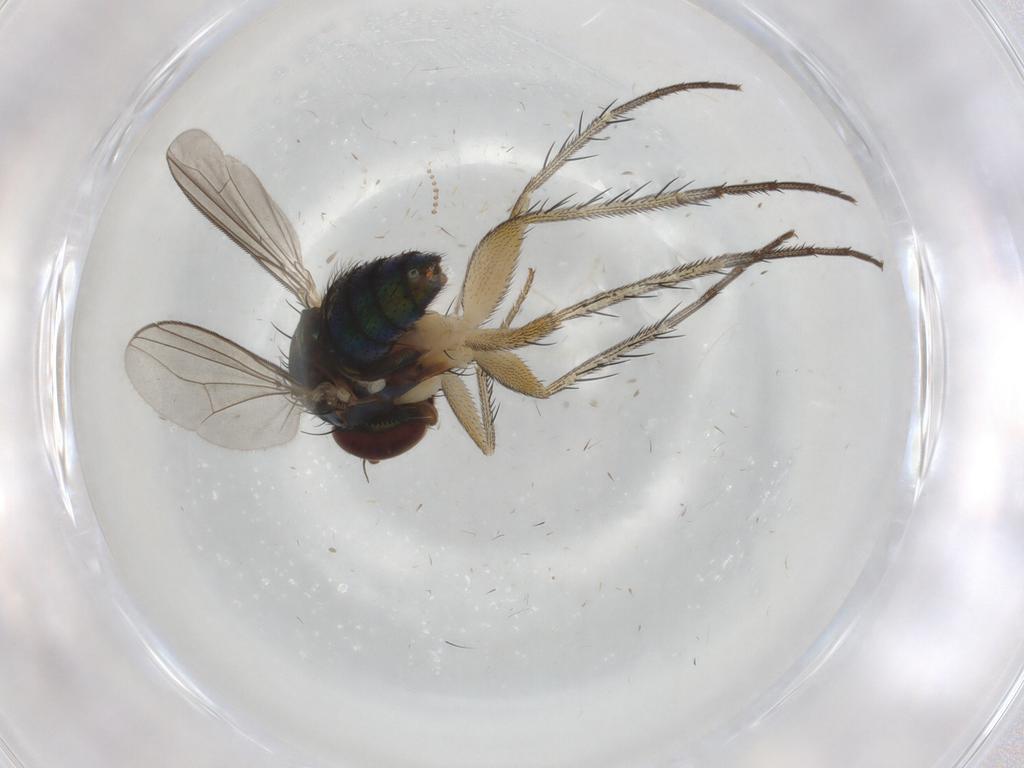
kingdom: Animalia
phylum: Arthropoda
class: Insecta
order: Diptera
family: Dolichopodidae
